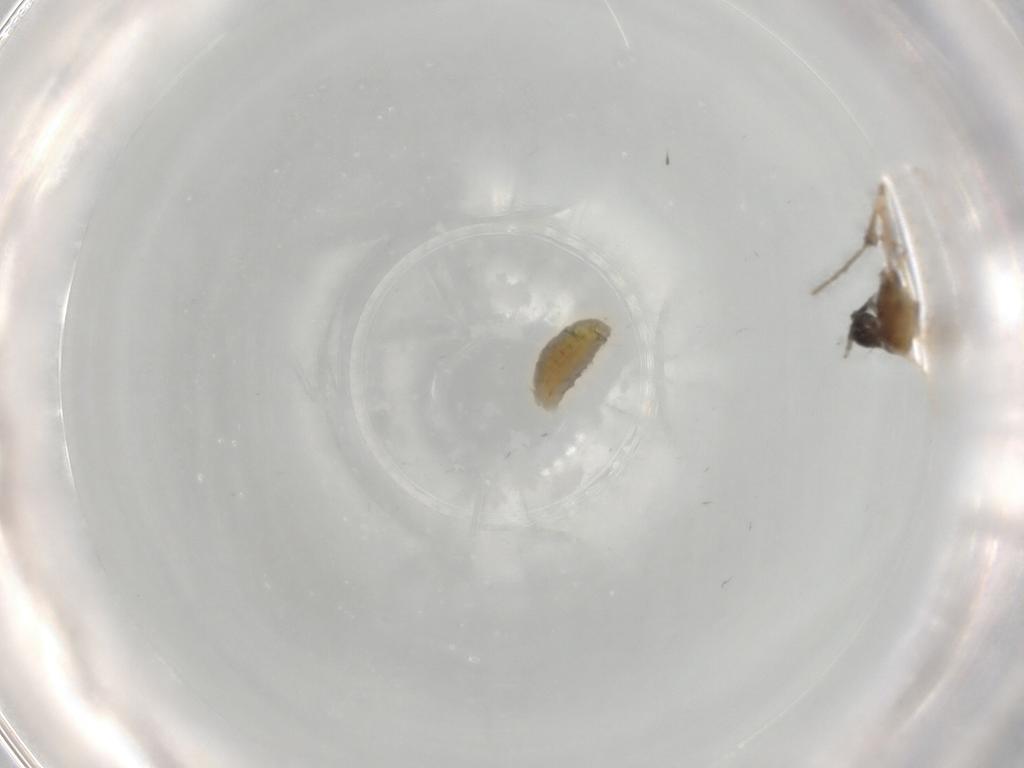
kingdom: Animalia
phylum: Arthropoda
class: Insecta
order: Diptera
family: Chironomidae
